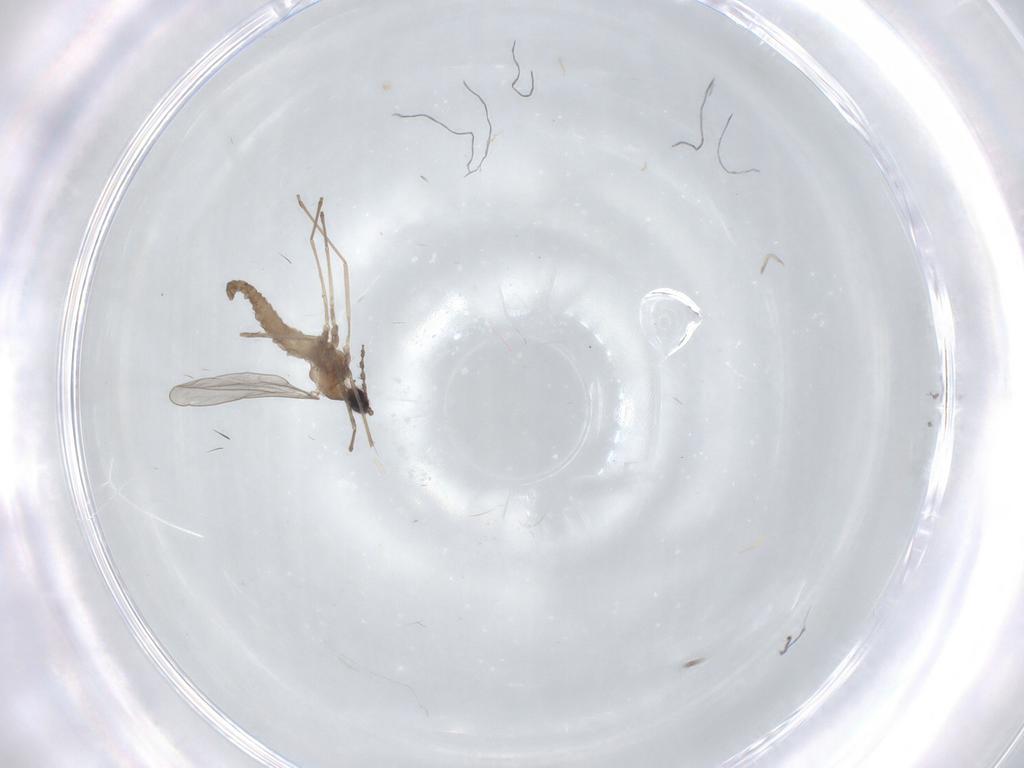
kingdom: Animalia
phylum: Arthropoda
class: Insecta
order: Diptera
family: Cecidomyiidae
